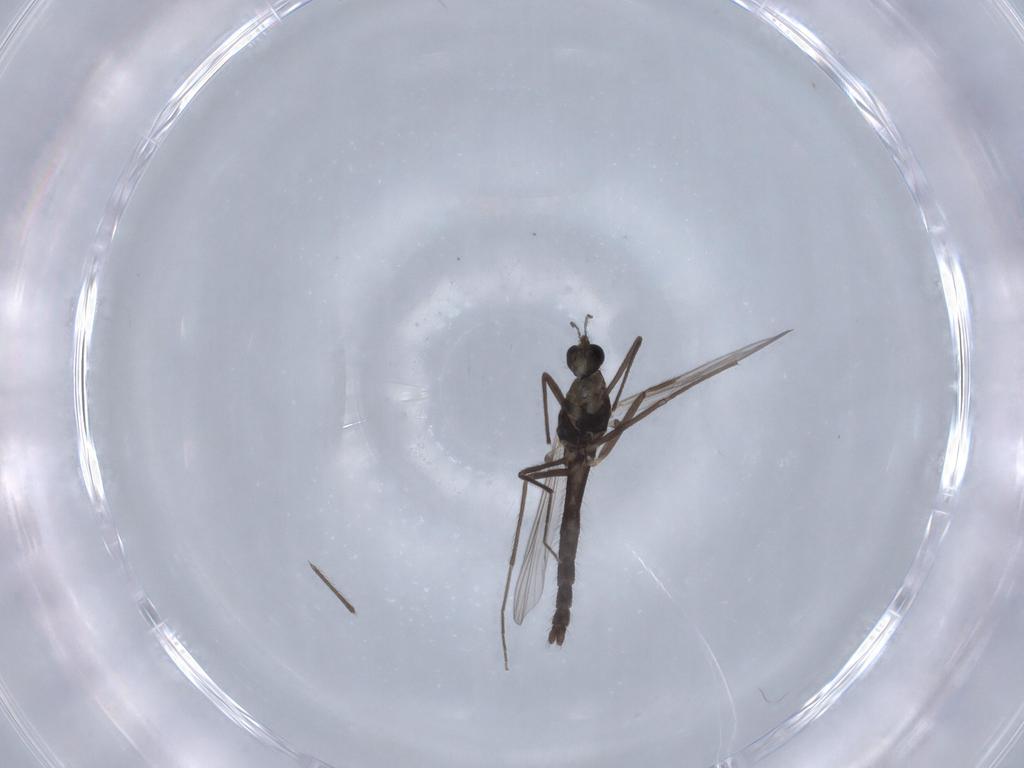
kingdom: Animalia
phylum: Arthropoda
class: Insecta
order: Diptera
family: Chironomidae
